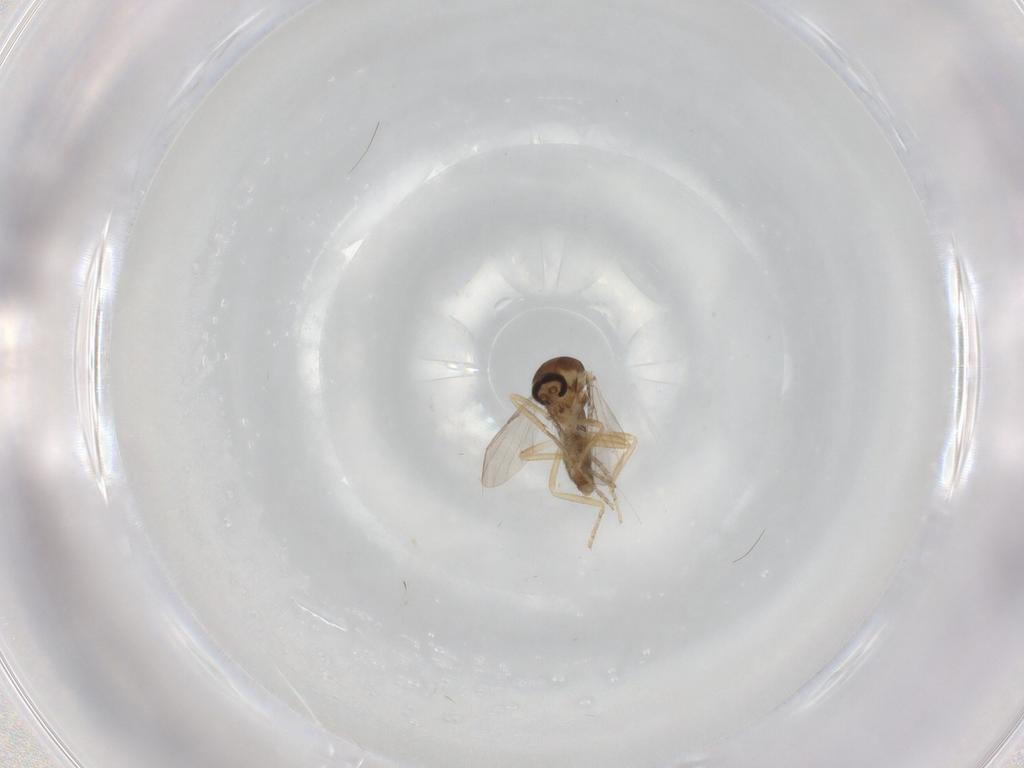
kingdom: Animalia
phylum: Arthropoda
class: Insecta
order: Diptera
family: Ceratopogonidae
